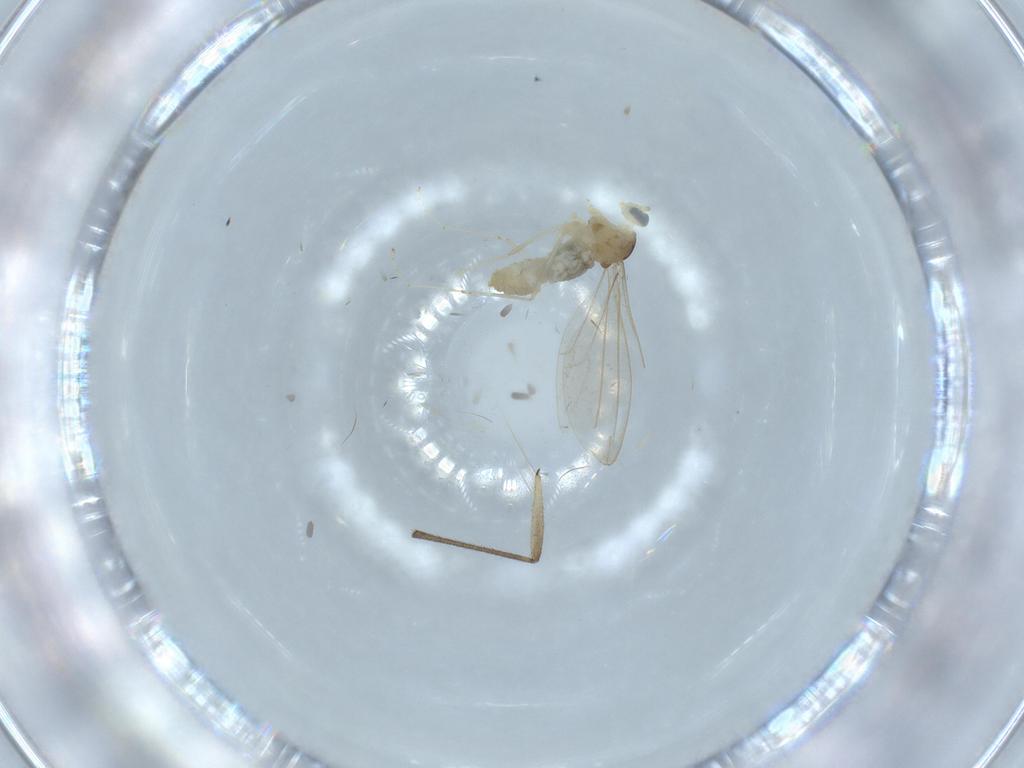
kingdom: Animalia
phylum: Arthropoda
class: Insecta
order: Diptera
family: Cecidomyiidae
